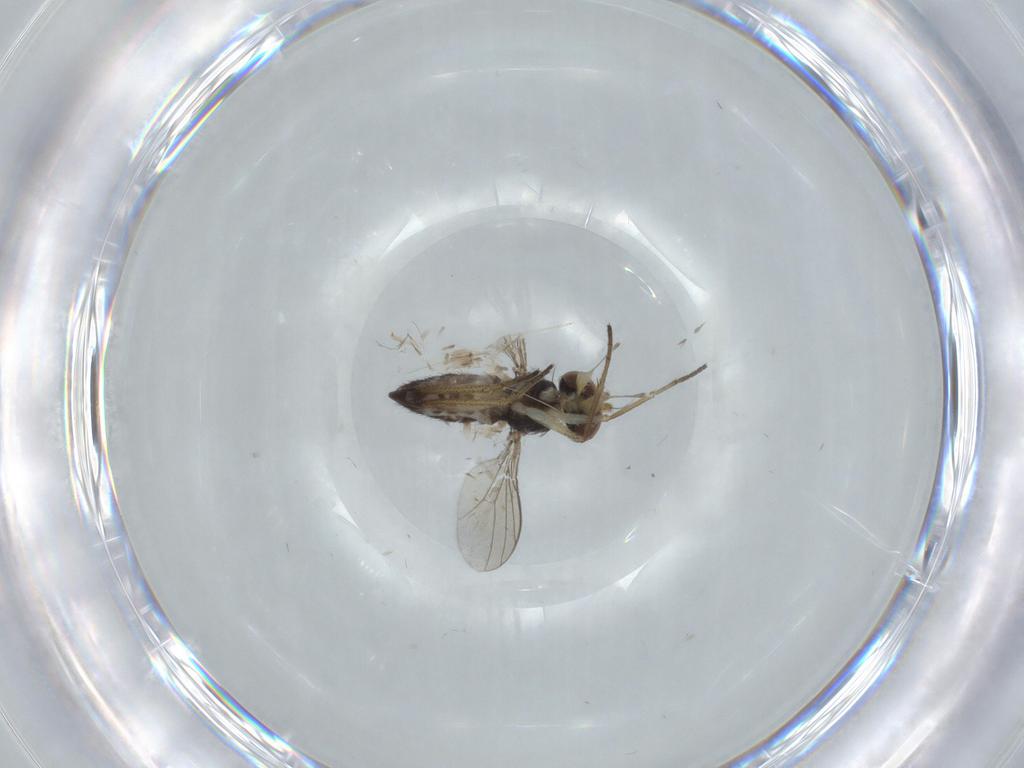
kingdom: Animalia
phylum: Arthropoda
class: Insecta
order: Diptera
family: Dolichopodidae
